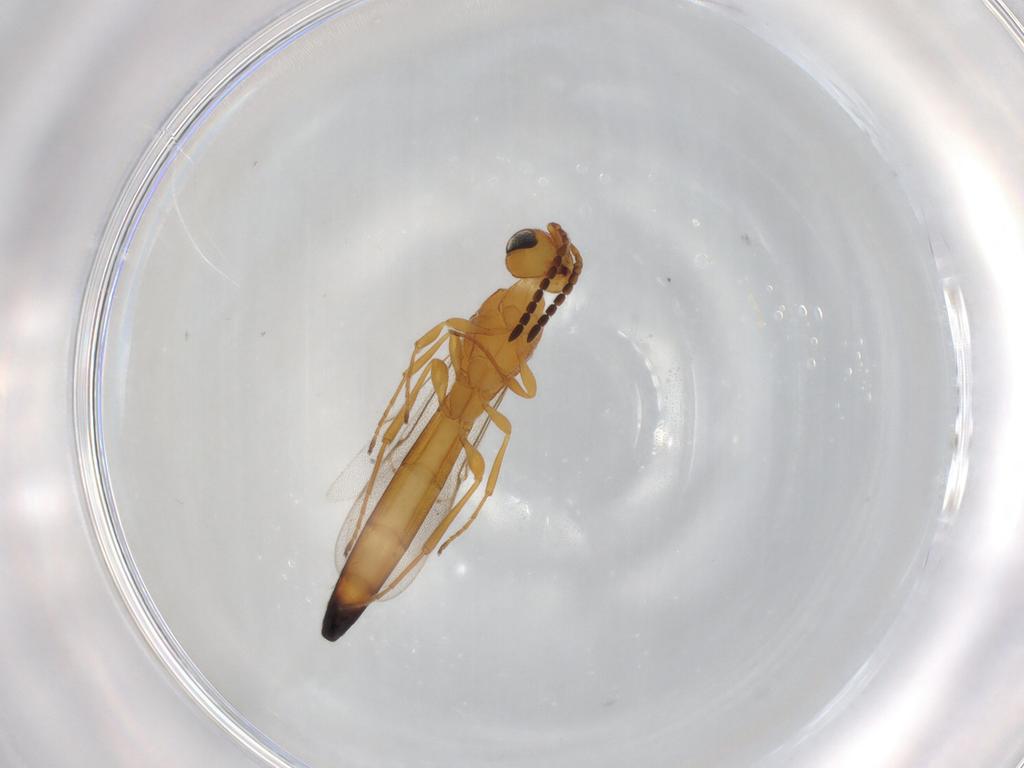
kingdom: Animalia
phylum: Arthropoda
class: Insecta
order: Hymenoptera
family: Scelionidae
